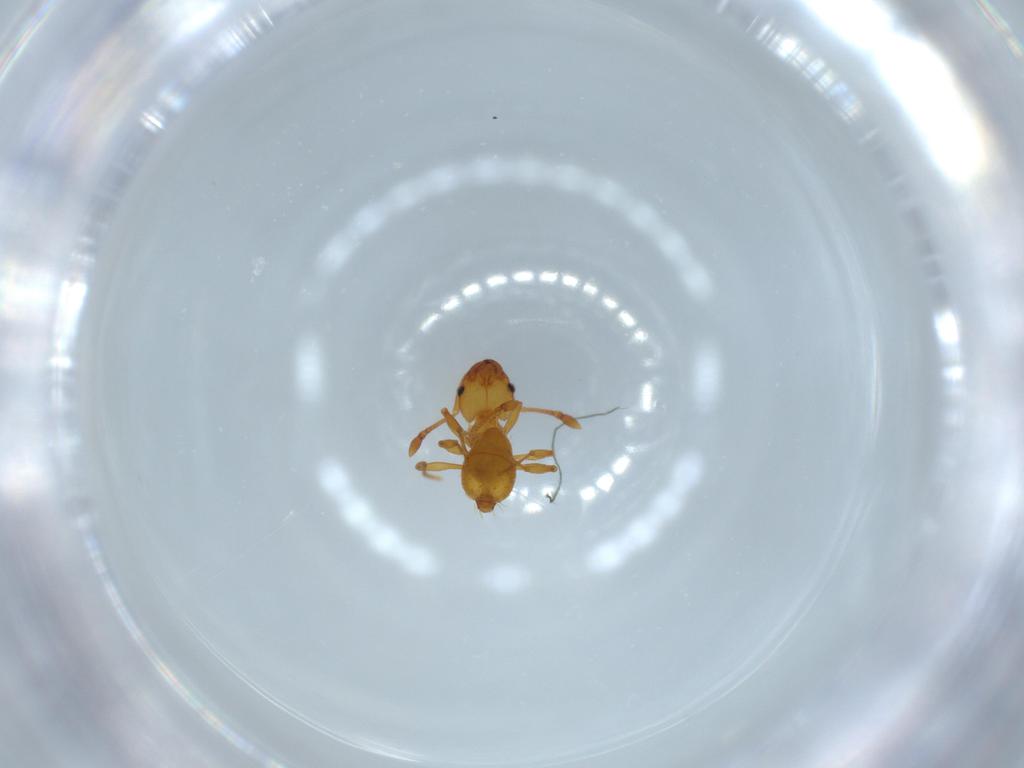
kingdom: Animalia
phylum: Arthropoda
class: Insecta
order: Hymenoptera
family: Formicidae
